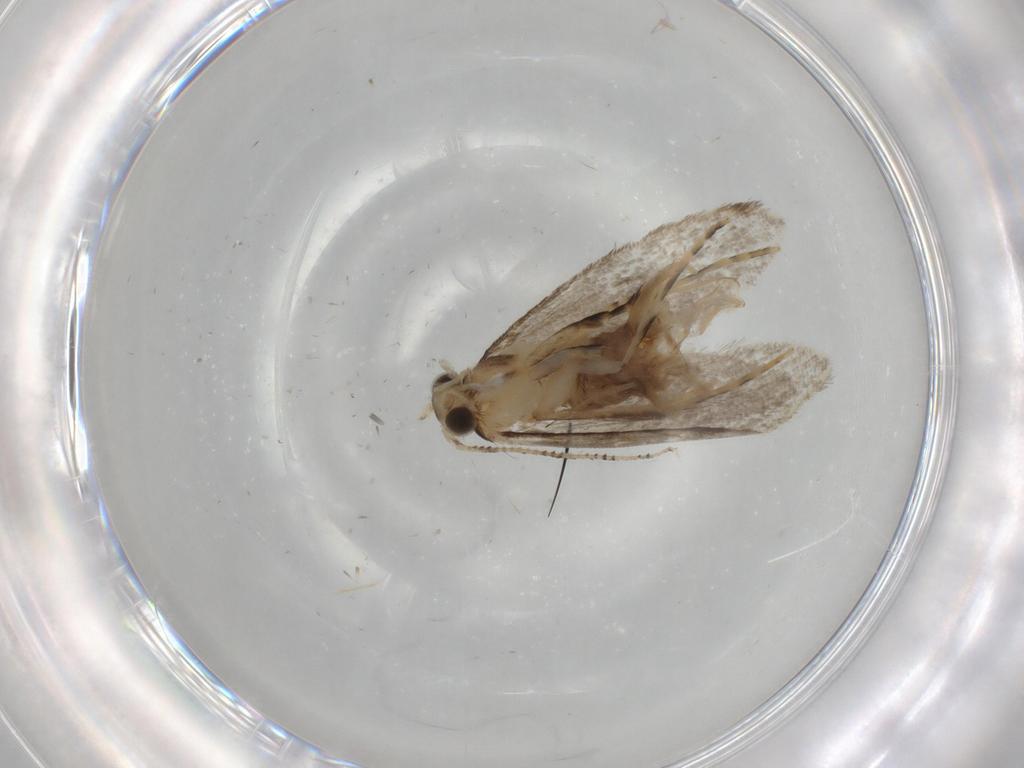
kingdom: Animalia
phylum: Arthropoda
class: Insecta
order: Lepidoptera
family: Tineidae
